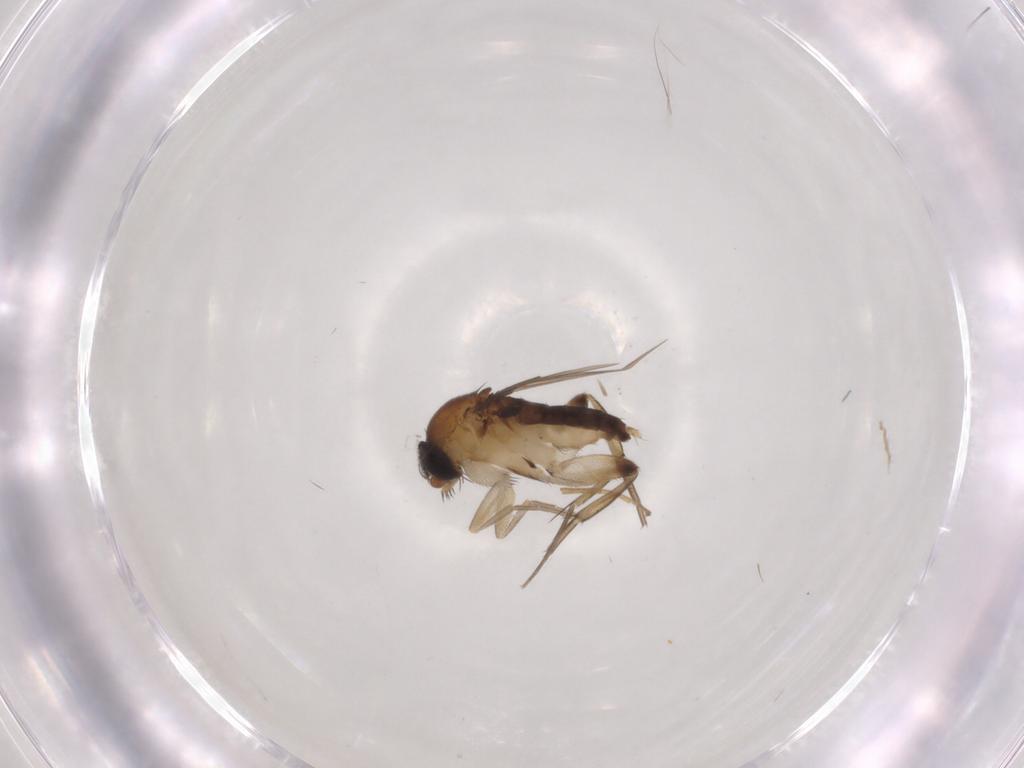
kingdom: Animalia
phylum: Arthropoda
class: Insecta
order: Diptera
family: Phoridae
